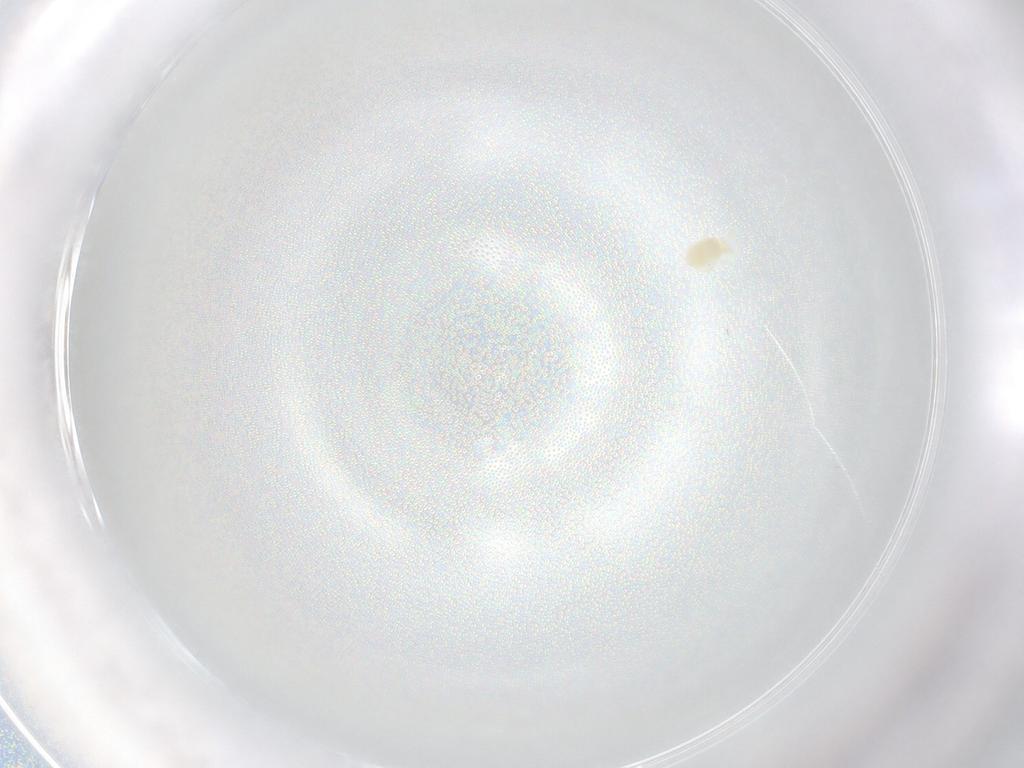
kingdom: Animalia
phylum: Arthropoda
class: Arachnida
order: Trombidiformes
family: Eupodidae
